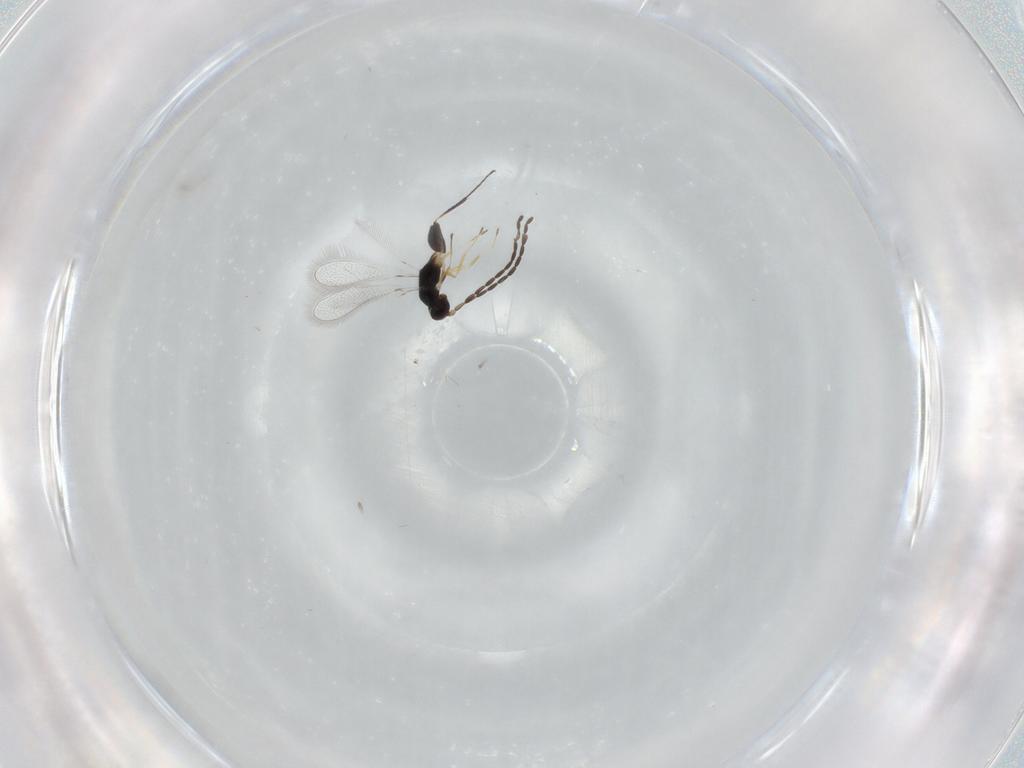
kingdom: Animalia
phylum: Arthropoda
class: Insecta
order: Hymenoptera
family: Mymaridae
